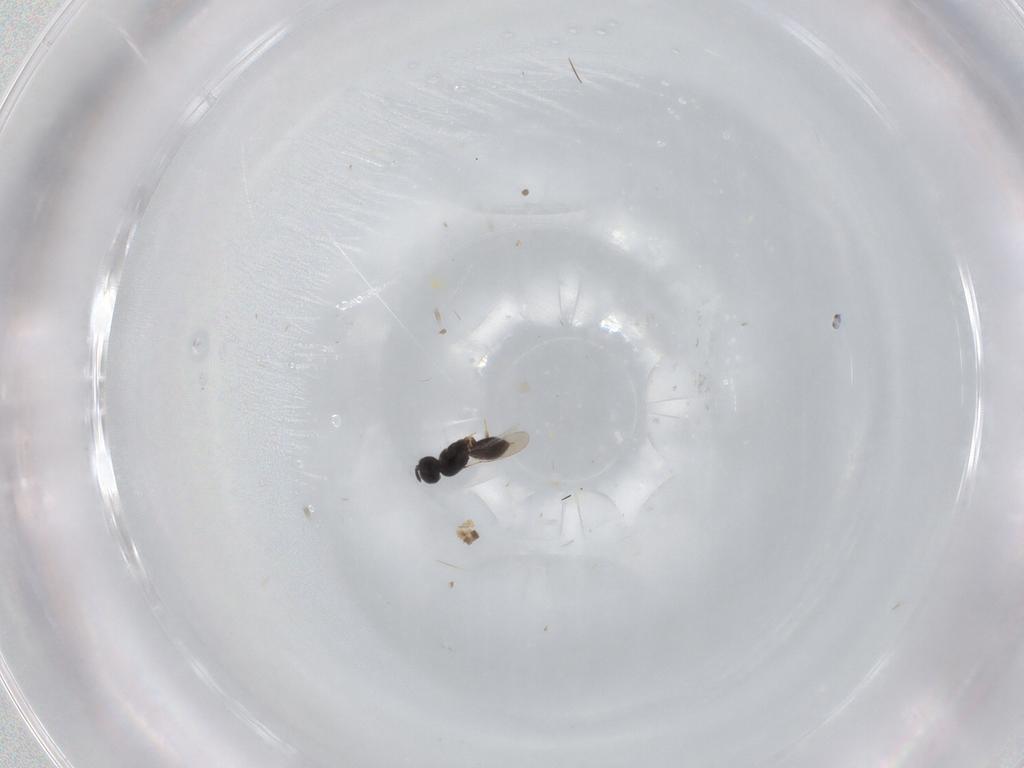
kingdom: Animalia
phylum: Arthropoda
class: Insecta
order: Hymenoptera
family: Scelionidae
